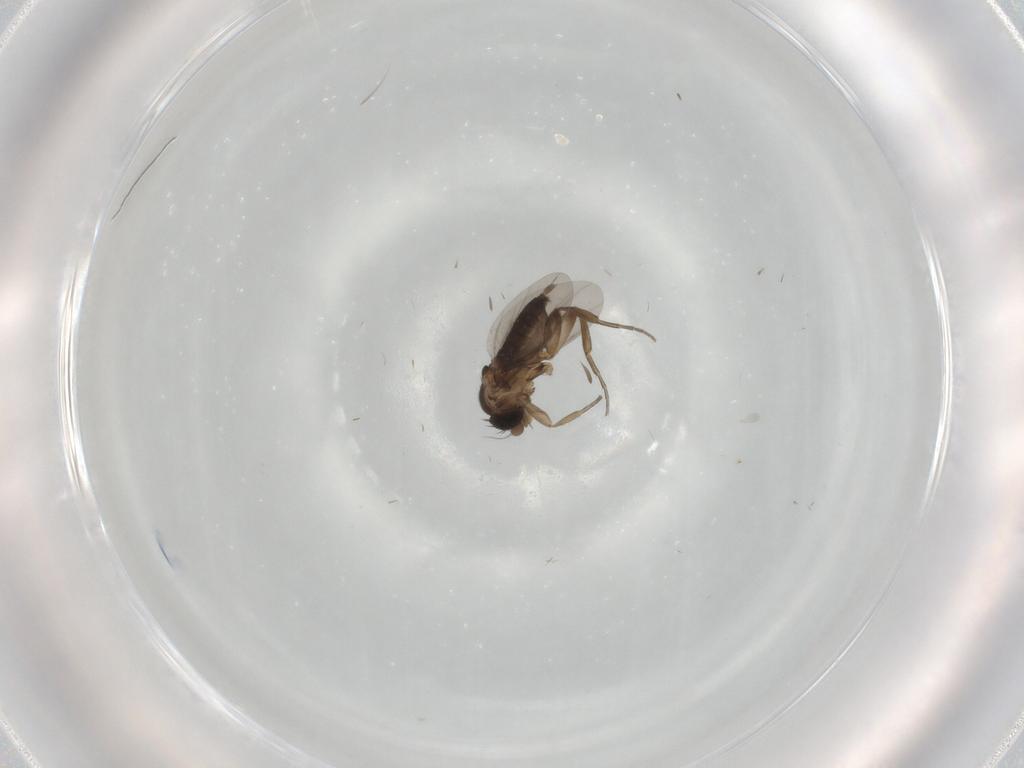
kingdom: Animalia
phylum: Arthropoda
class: Insecta
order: Diptera
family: Phoridae
